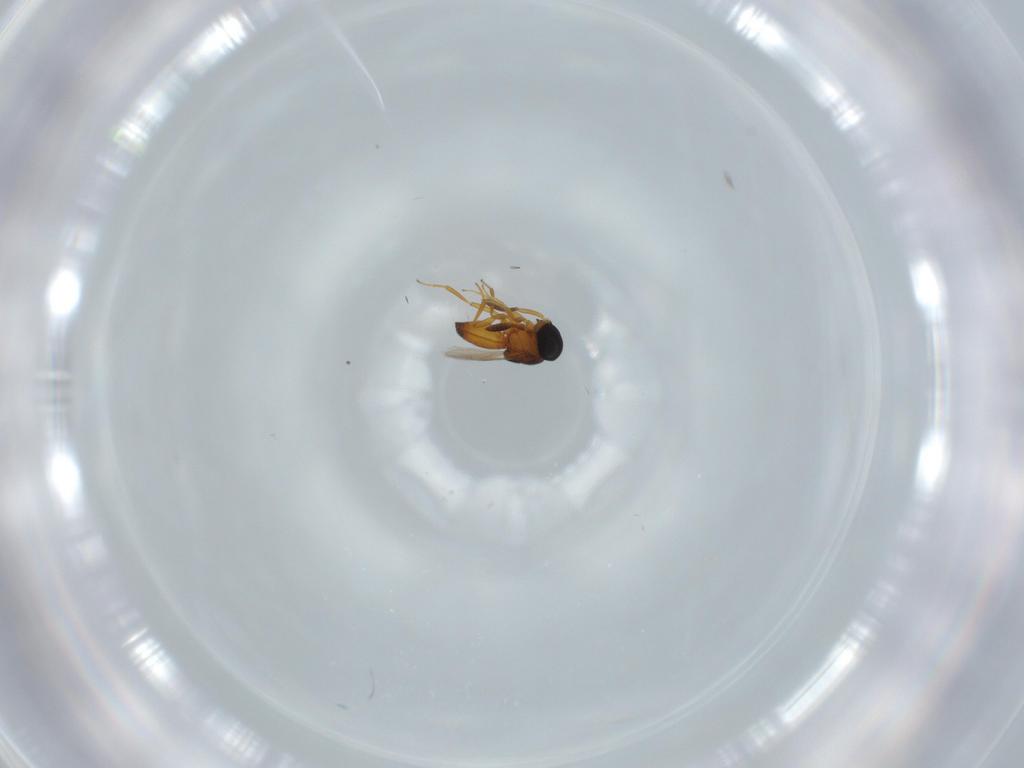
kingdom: Animalia
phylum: Arthropoda
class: Insecta
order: Hymenoptera
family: Scelionidae
